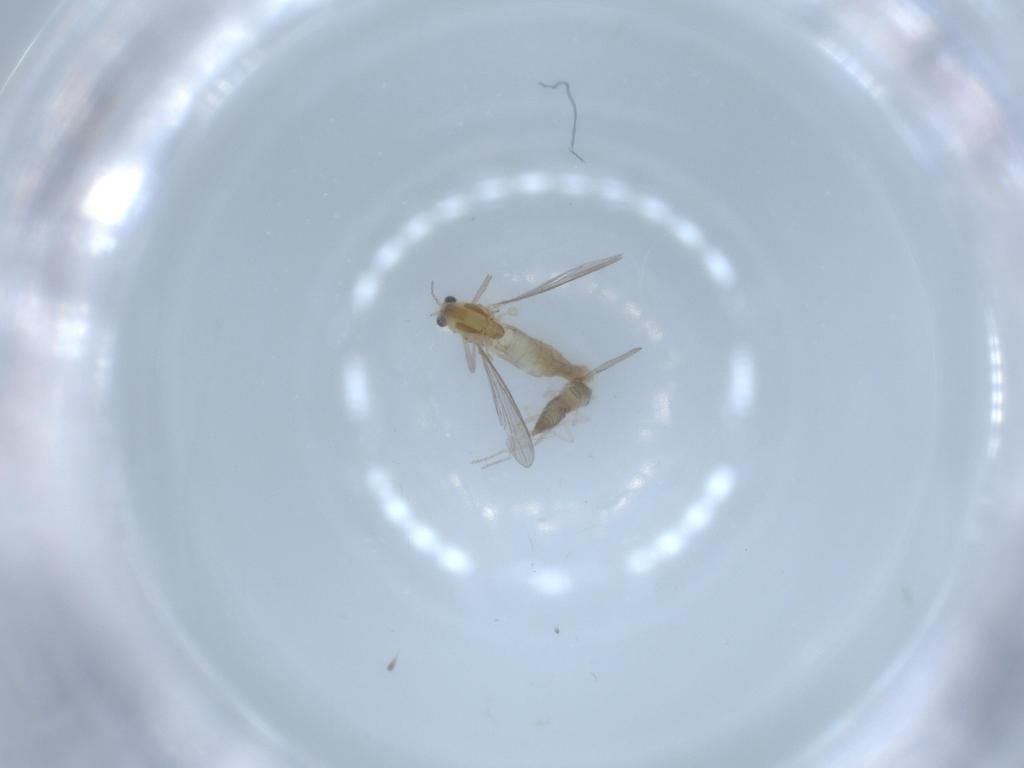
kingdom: Animalia
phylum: Arthropoda
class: Insecta
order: Diptera
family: Chironomidae
